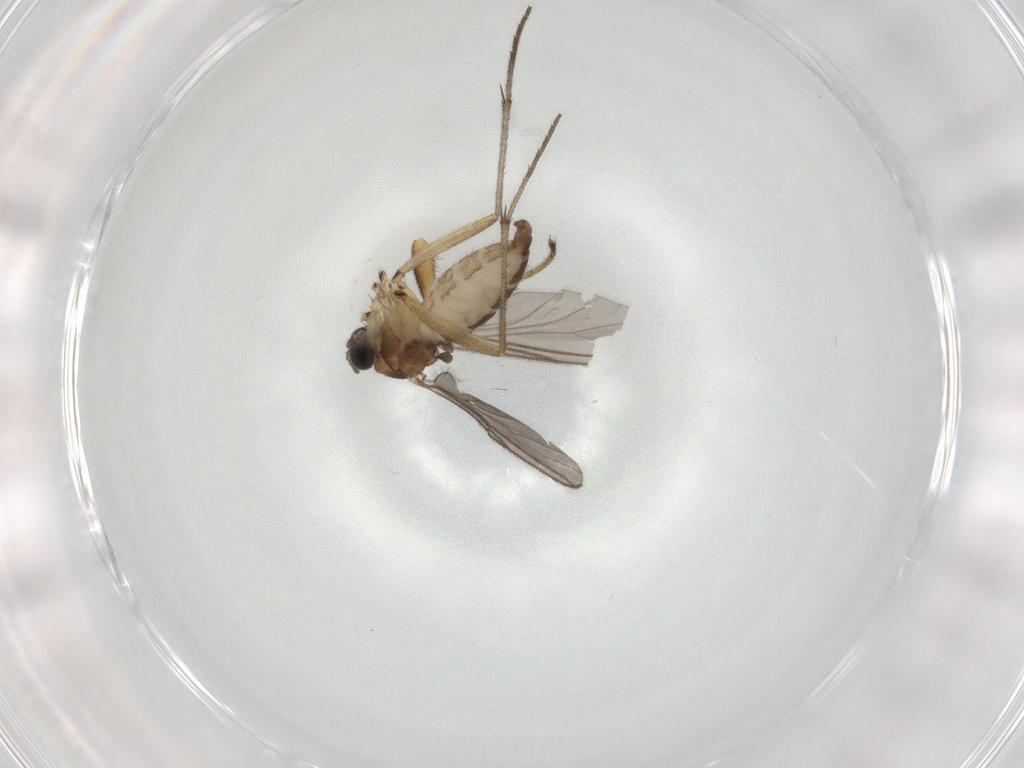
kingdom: Animalia
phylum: Arthropoda
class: Insecta
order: Diptera
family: Sciaridae
